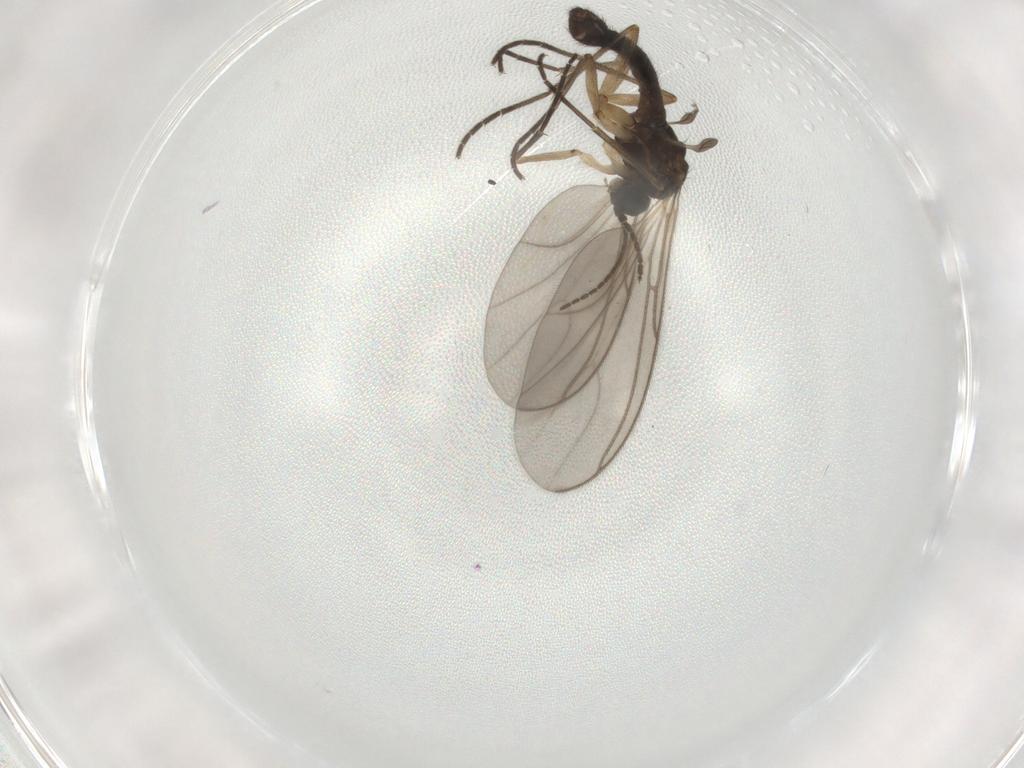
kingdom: Animalia
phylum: Arthropoda
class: Insecta
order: Diptera
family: Sciaridae
